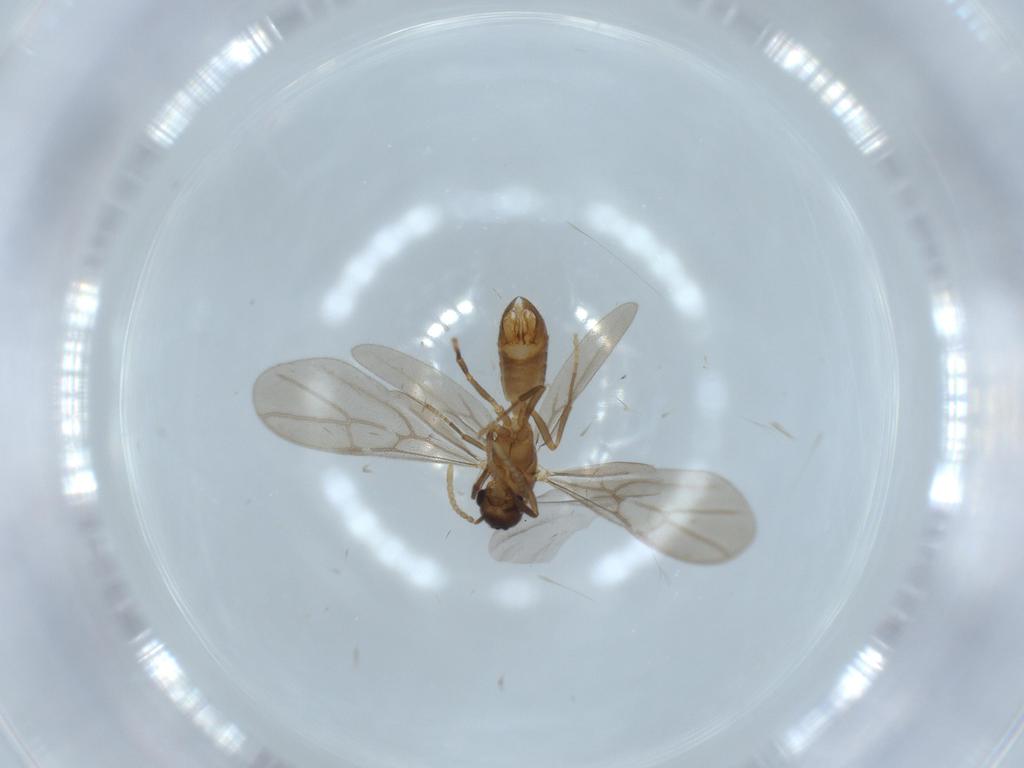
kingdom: Animalia
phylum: Arthropoda
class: Insecta
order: Hymenoptera
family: Formicidae
